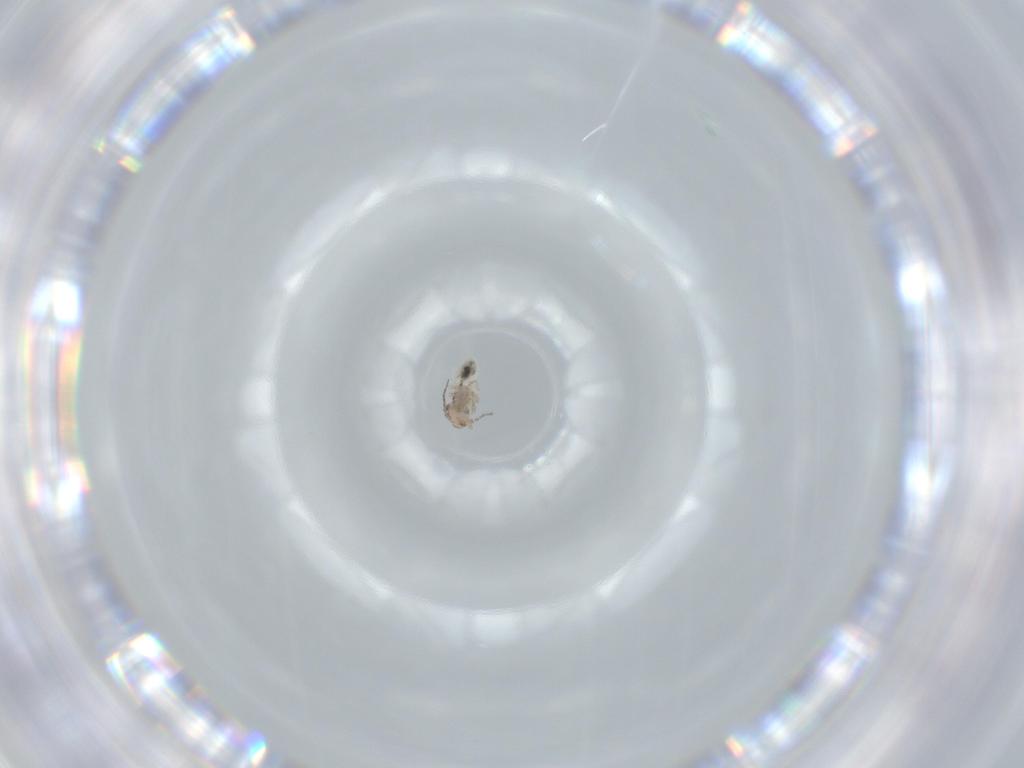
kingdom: Animalia
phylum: Arthropoda
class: Insecta
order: Psocodea
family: Lepidopsocidae
